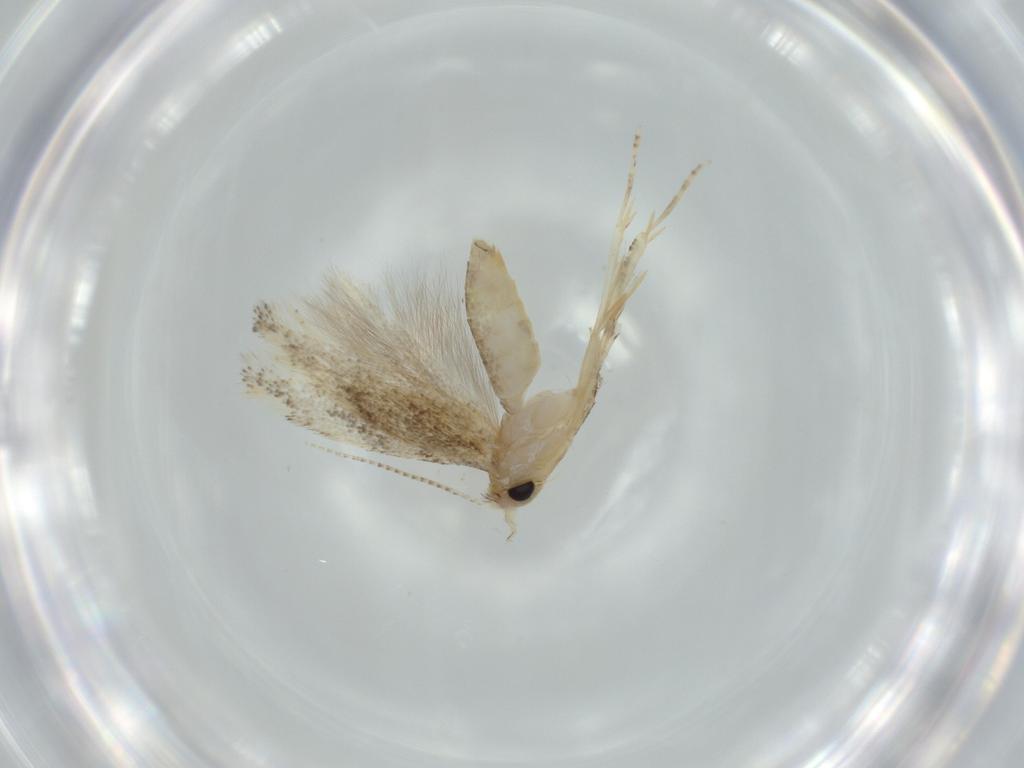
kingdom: Animalia
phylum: Arthropoda
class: Insecta
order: Lepidoptera
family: Bucculatricidae
